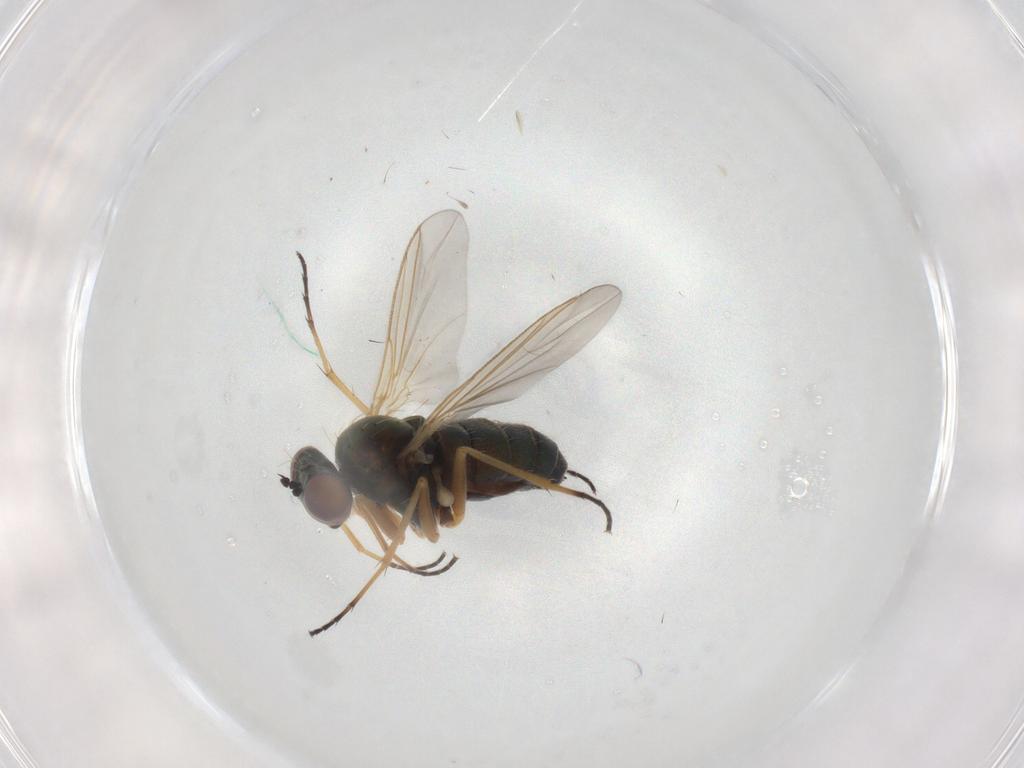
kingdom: Animalia
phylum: Arthropoda
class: Insecta
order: Diptera
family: Dolichopodidae
